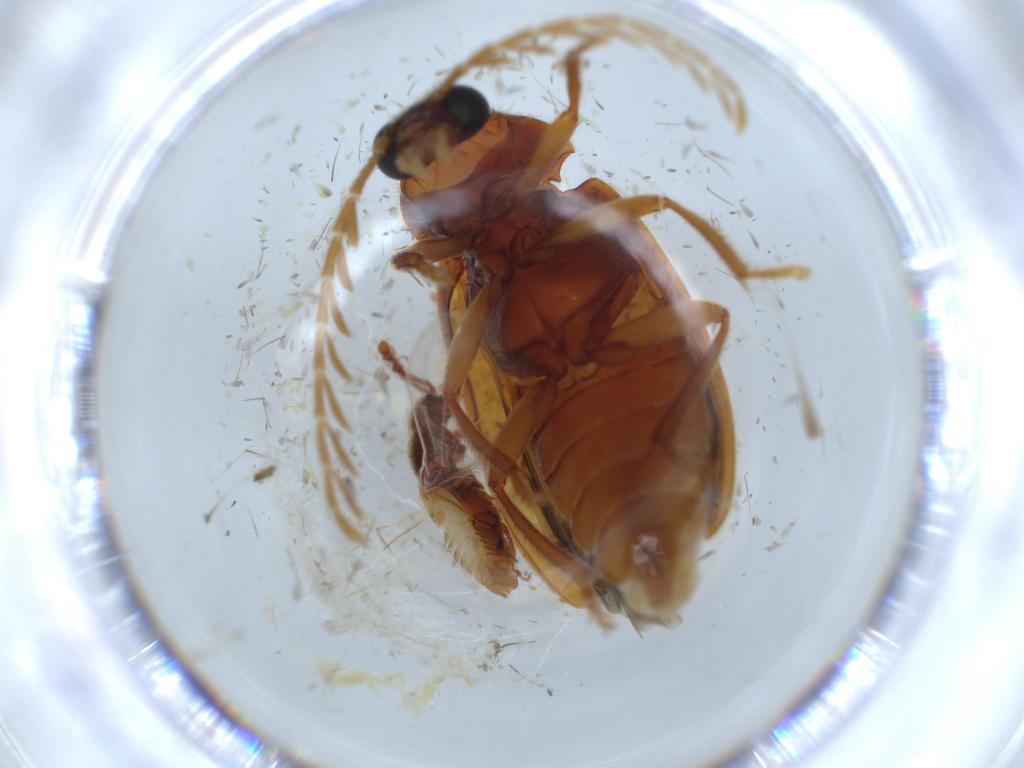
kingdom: Animalia
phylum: Arthropoda
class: Insecta
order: Coleoptera
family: Ptilodactylidae
